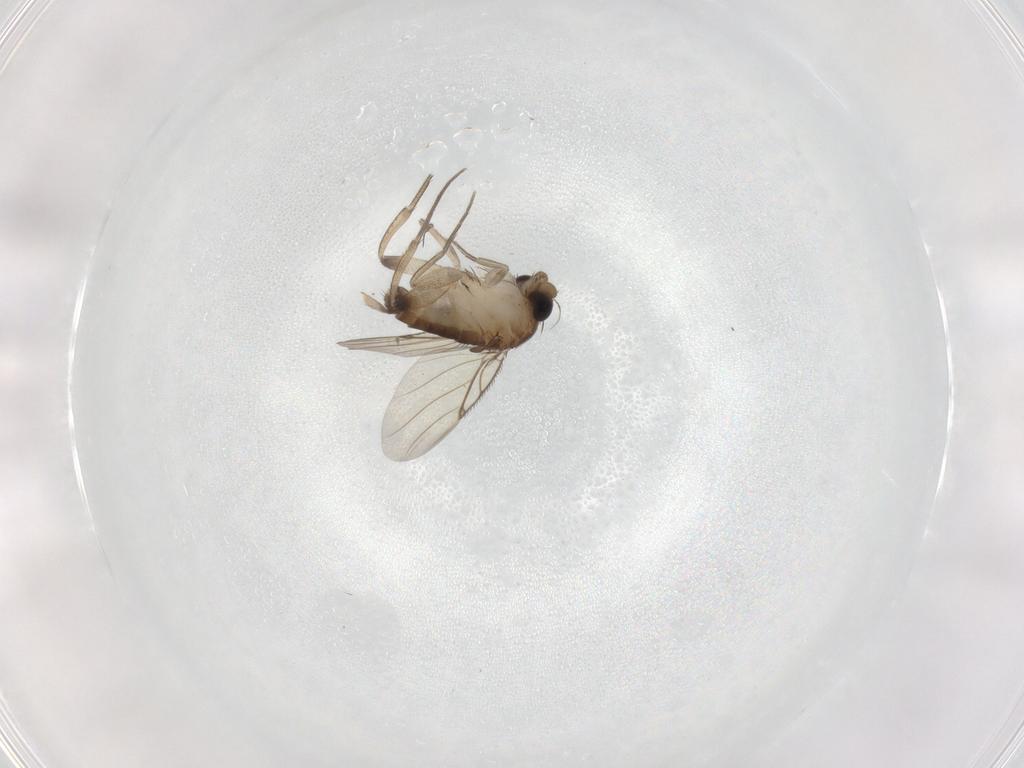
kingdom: Animalia
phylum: Arthropoda
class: Insecta
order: Diptera
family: Phoridae
